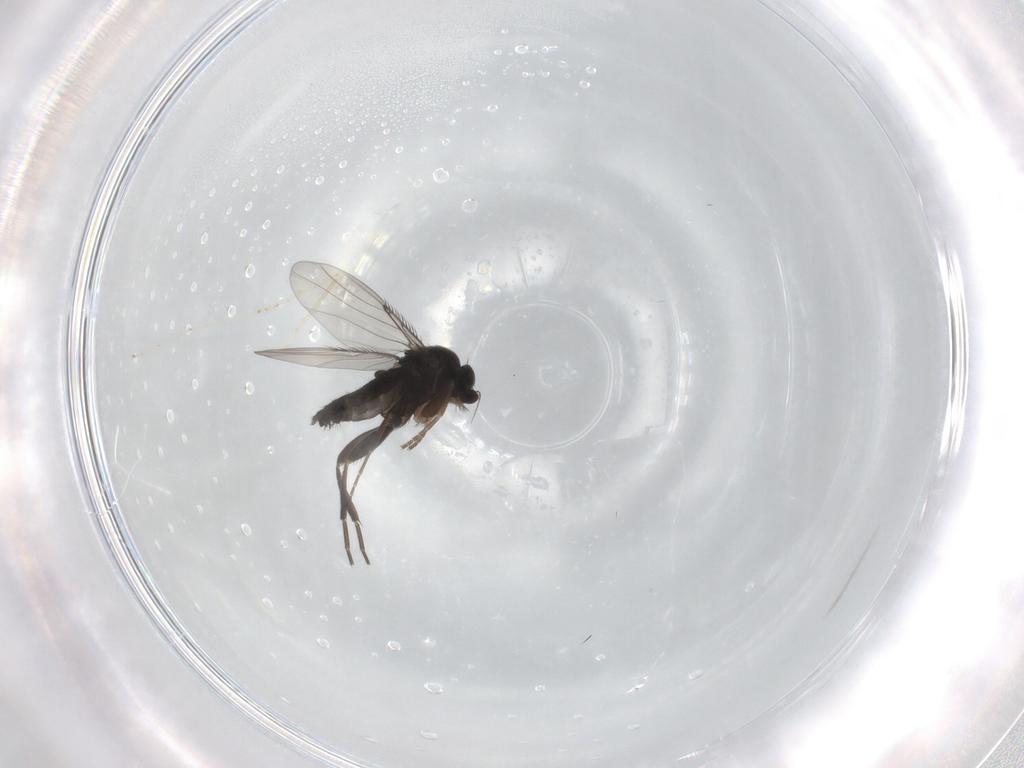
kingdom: Animalia
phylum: Arthropoda
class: Insecta
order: Diptera
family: Phoridae
